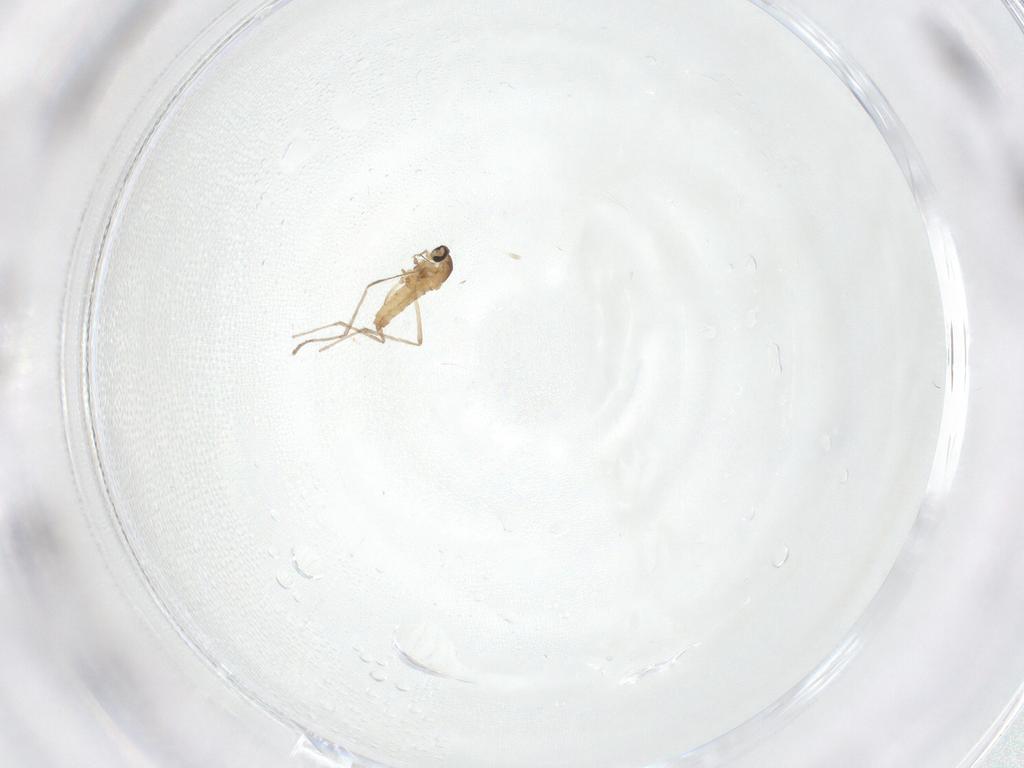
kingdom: Animalia
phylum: Arthropoda
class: Insecta
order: Diptera
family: Cecidomyiidae
